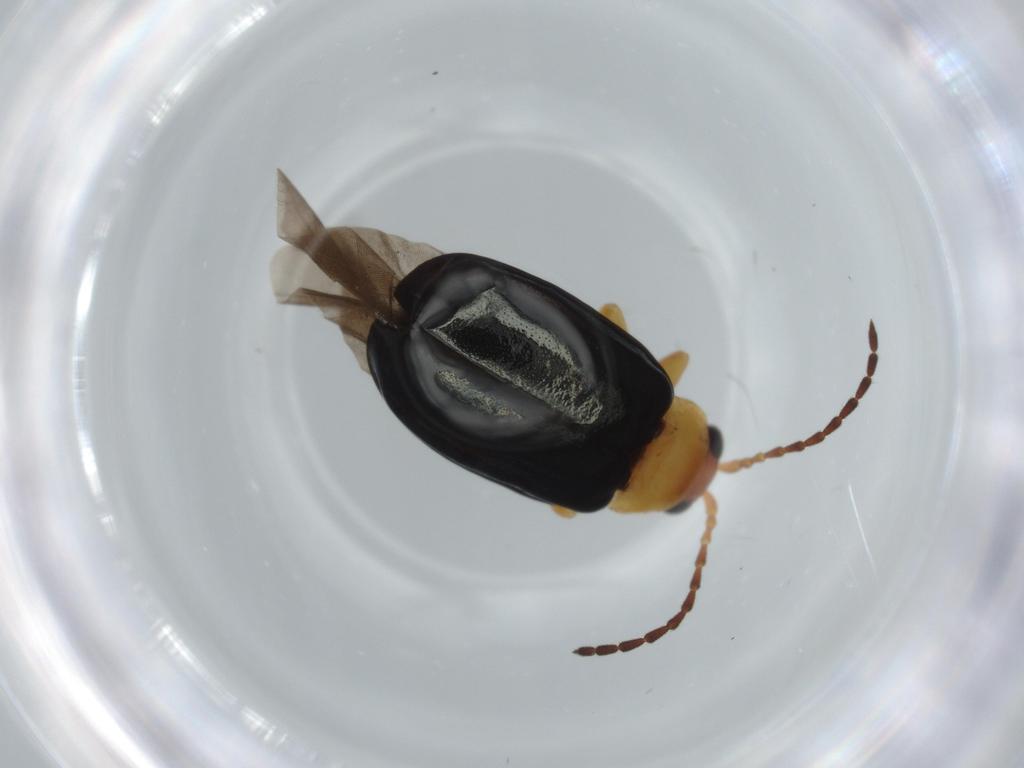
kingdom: Animalia
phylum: Arthropoda
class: Insecta
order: Coleoptera
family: Chrysomelidae
